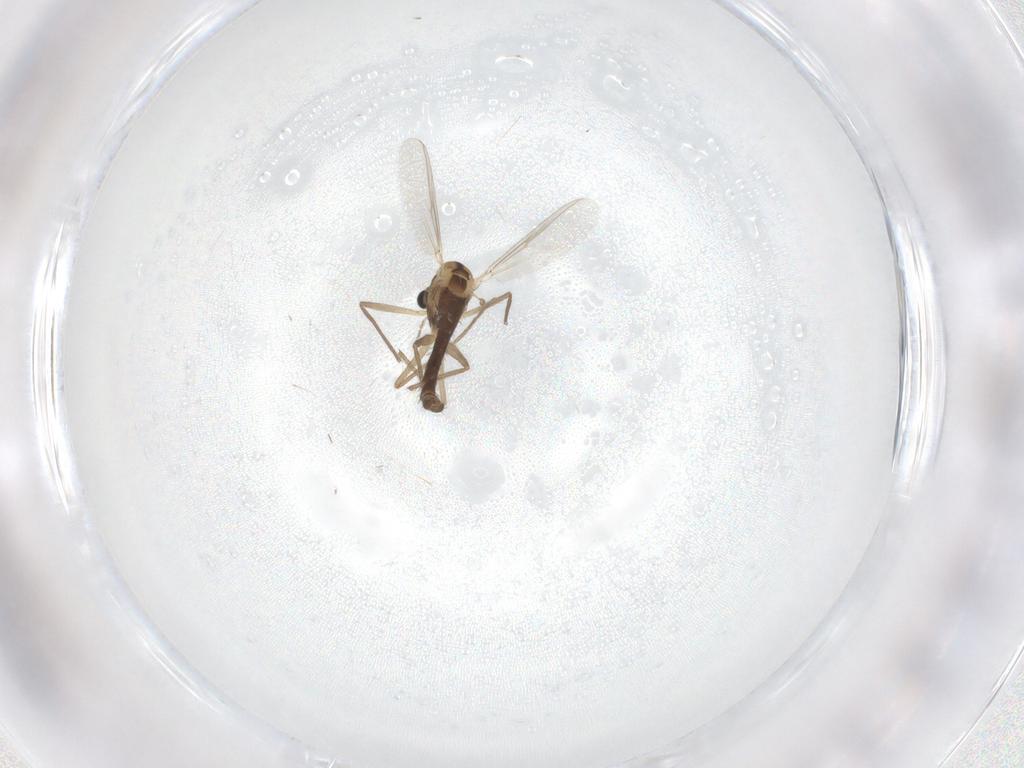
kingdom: Animalia
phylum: Arthropoda
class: Insecta
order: Diptera
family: Chironomidae
